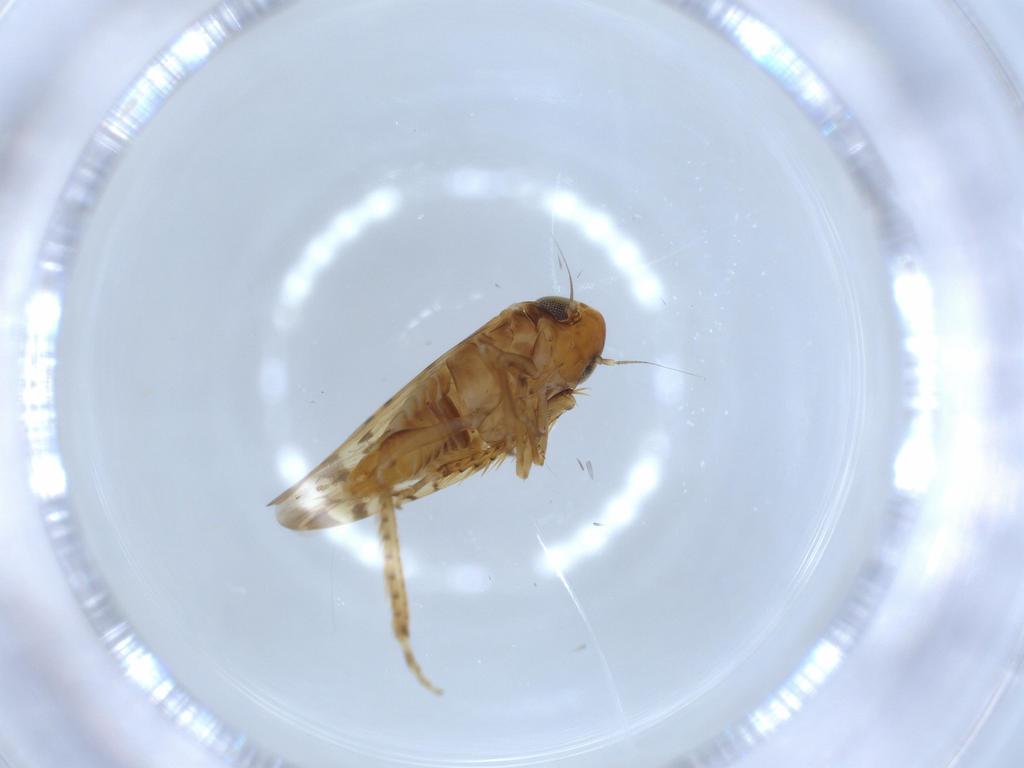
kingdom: Animalia
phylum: Arthropoda
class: Insecta
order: Hemiptera
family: Cicadellidae
